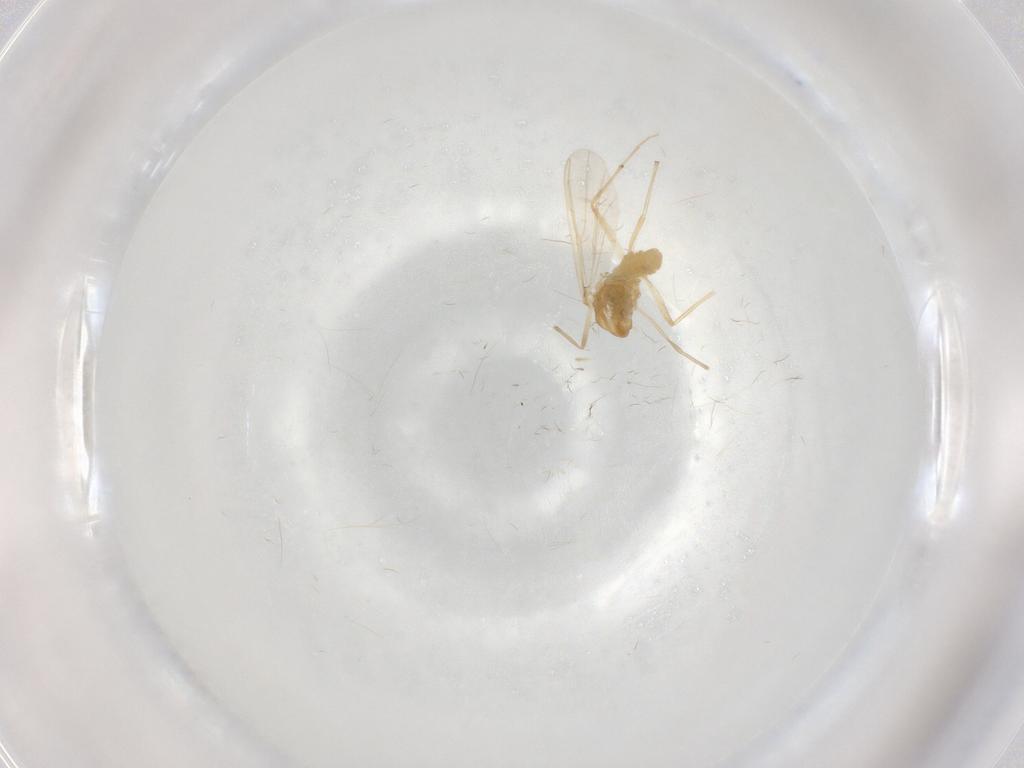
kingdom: Animalia
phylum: Arthropoda
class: Insecta
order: Diptera
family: Chironomidae
